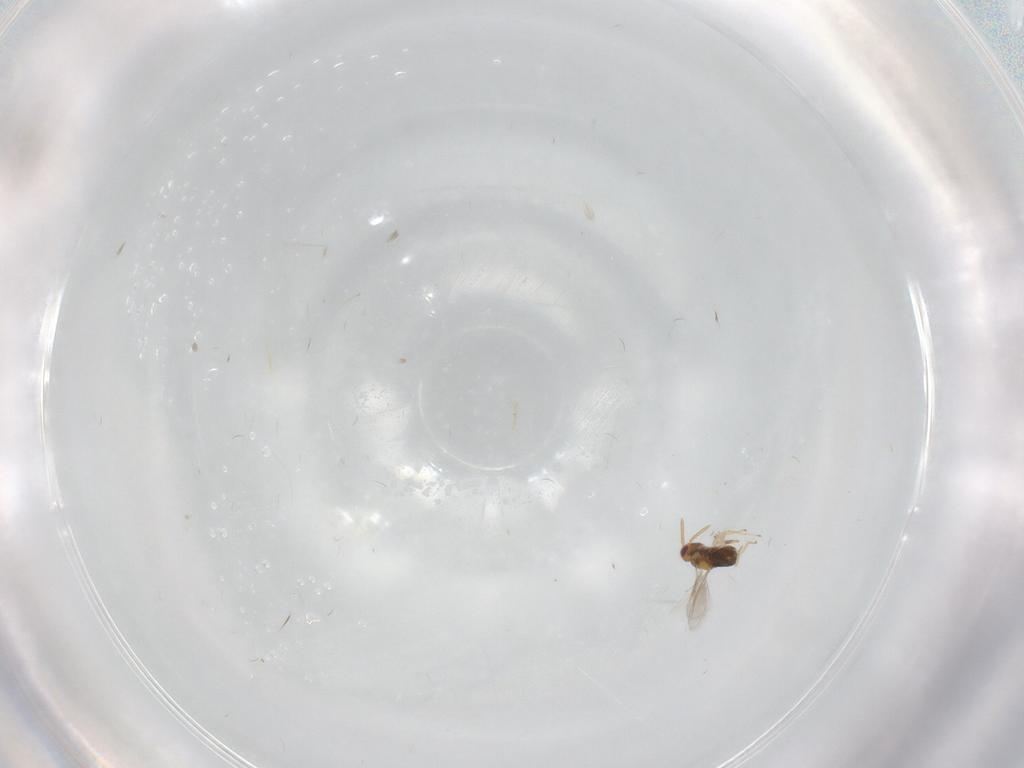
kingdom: Animalia
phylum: Arthropoda
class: Insecta
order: Hymenoptera
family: Aphelinidae
